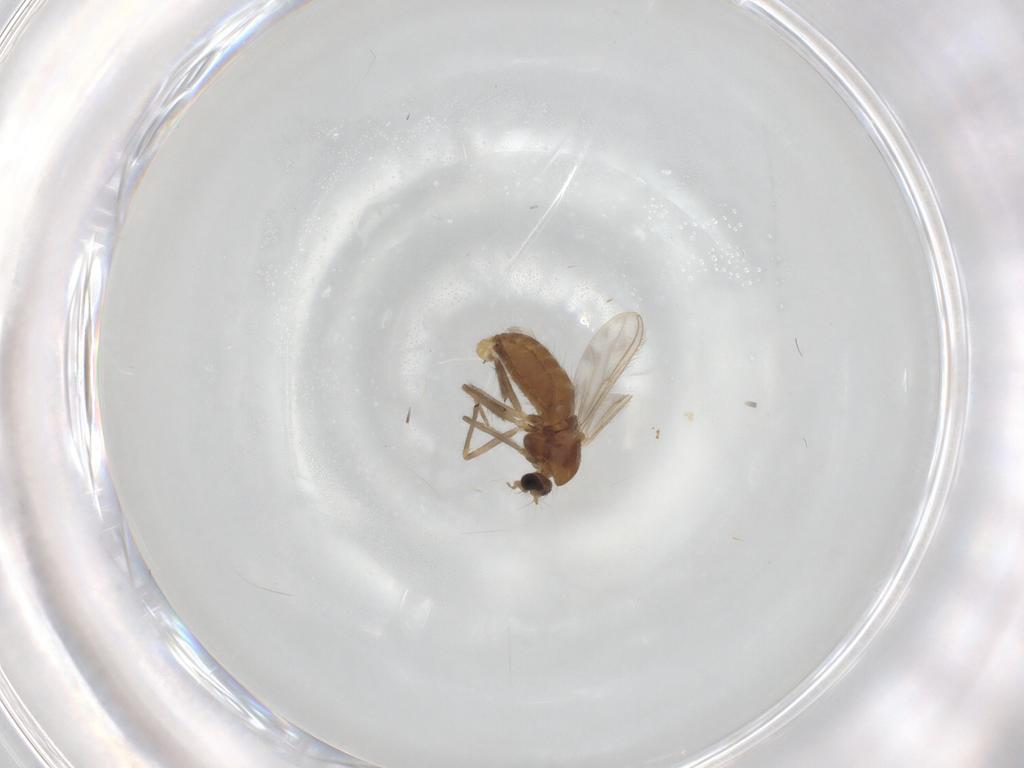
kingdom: Animalia
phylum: Arthropoda
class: Insecta
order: Diptera
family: Chironomidae
